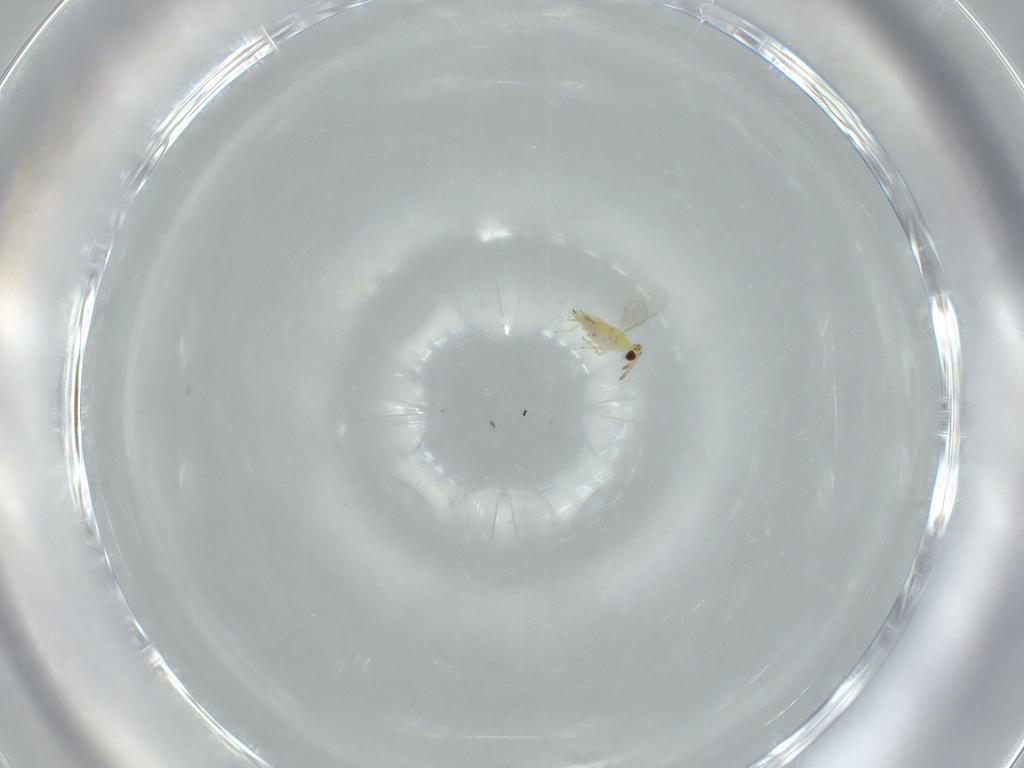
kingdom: Animalia
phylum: Arthropoda
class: Insecta
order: Hymenoptera
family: Aphelinidae
